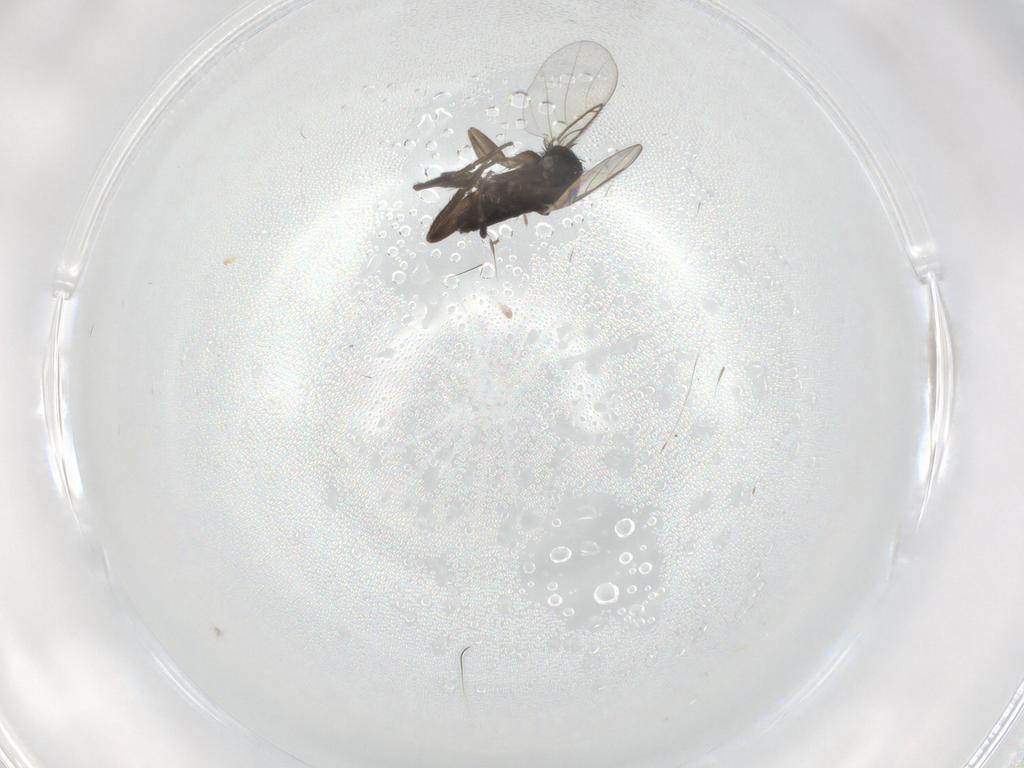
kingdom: Animalia
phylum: Arthropoda
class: Insecta
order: Diptera
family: Phoridae
